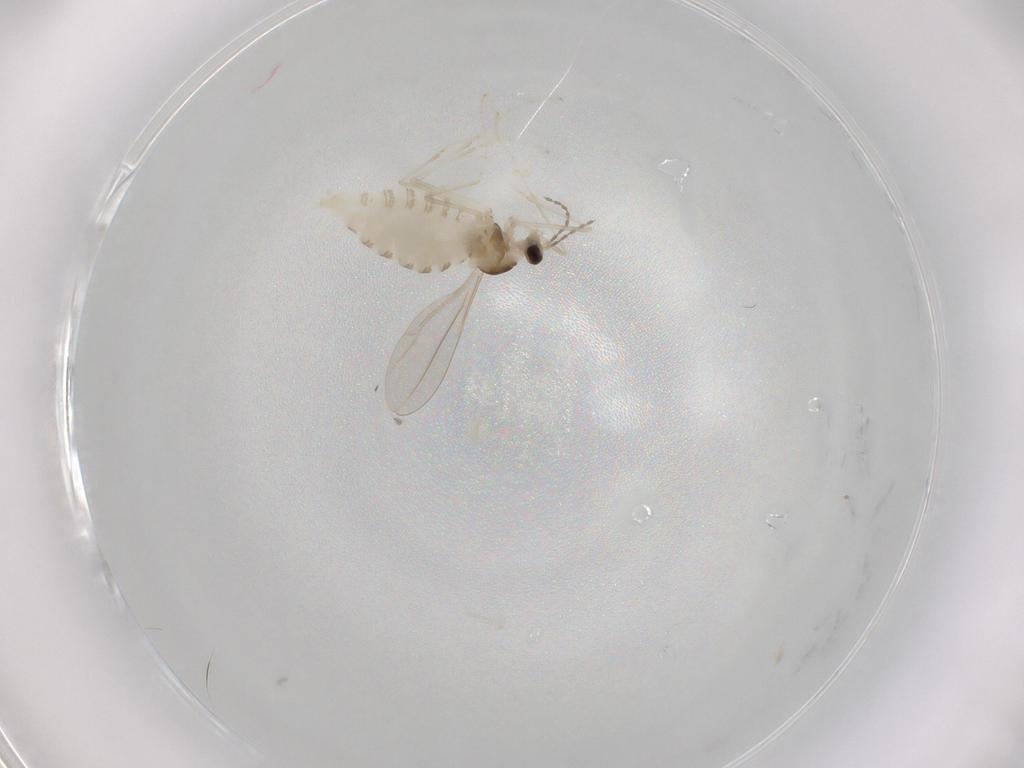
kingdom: Animalia
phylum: Arthropoda
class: Insecta
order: Diptera
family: Cecidomyiidae
